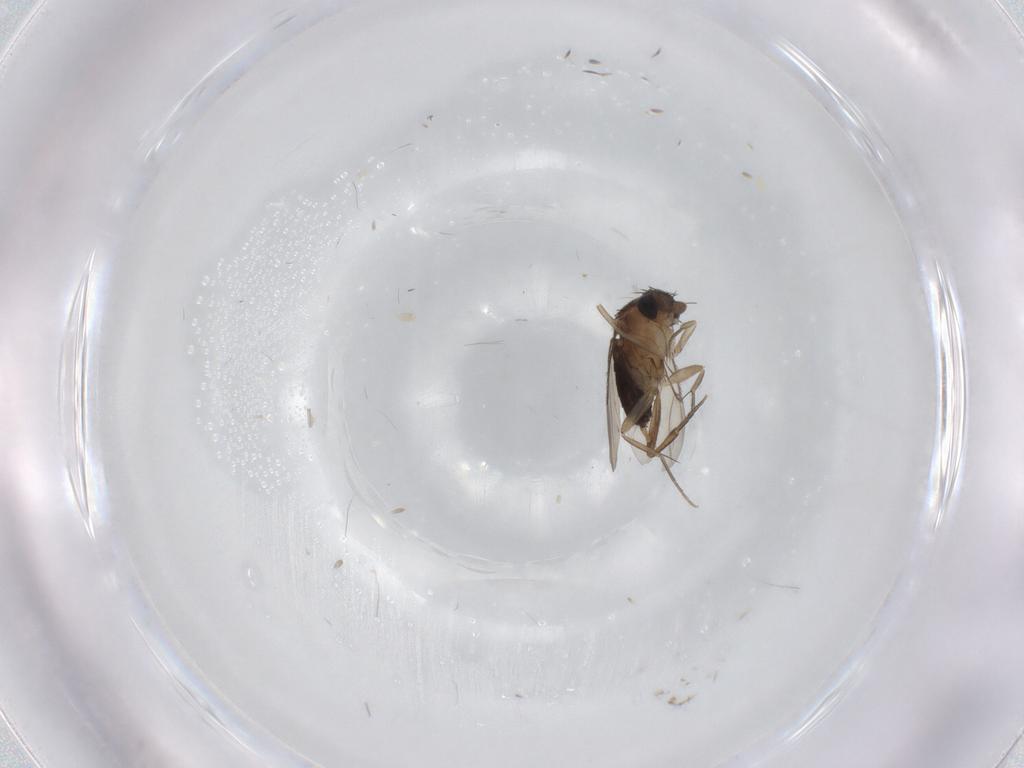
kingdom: Animalia
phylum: Arthropoda
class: Insecta
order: Diptera
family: Phoridae
